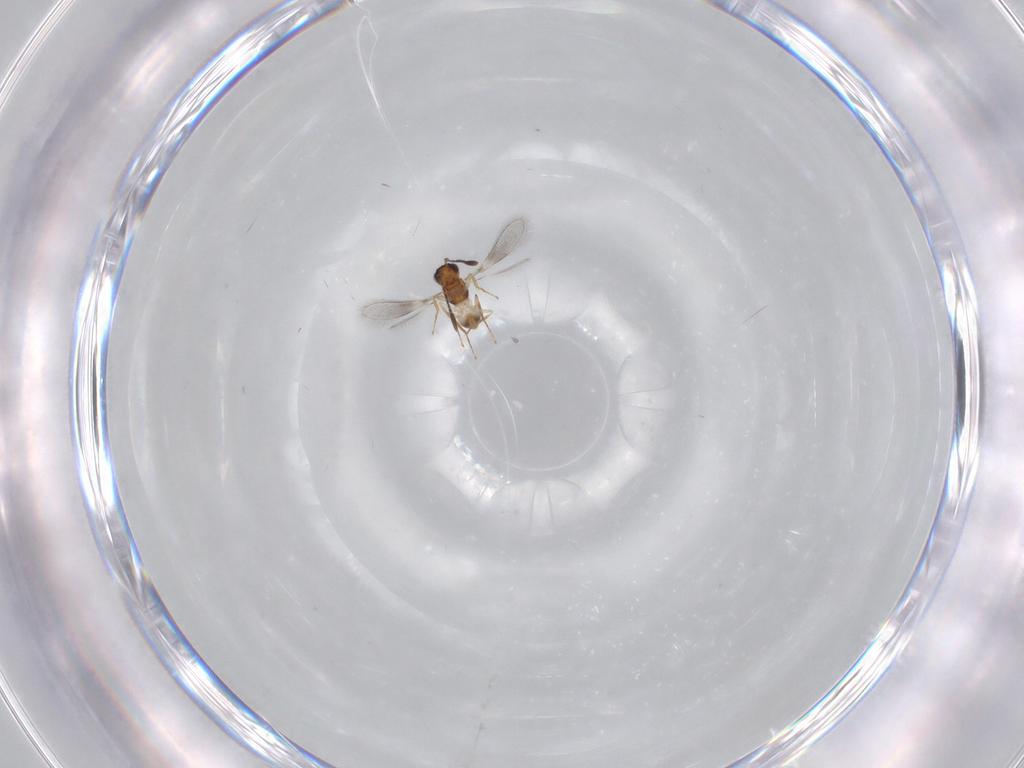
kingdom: Animalia
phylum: Arthropoda
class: Insecta
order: Hymenoptera
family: Mymaridae
